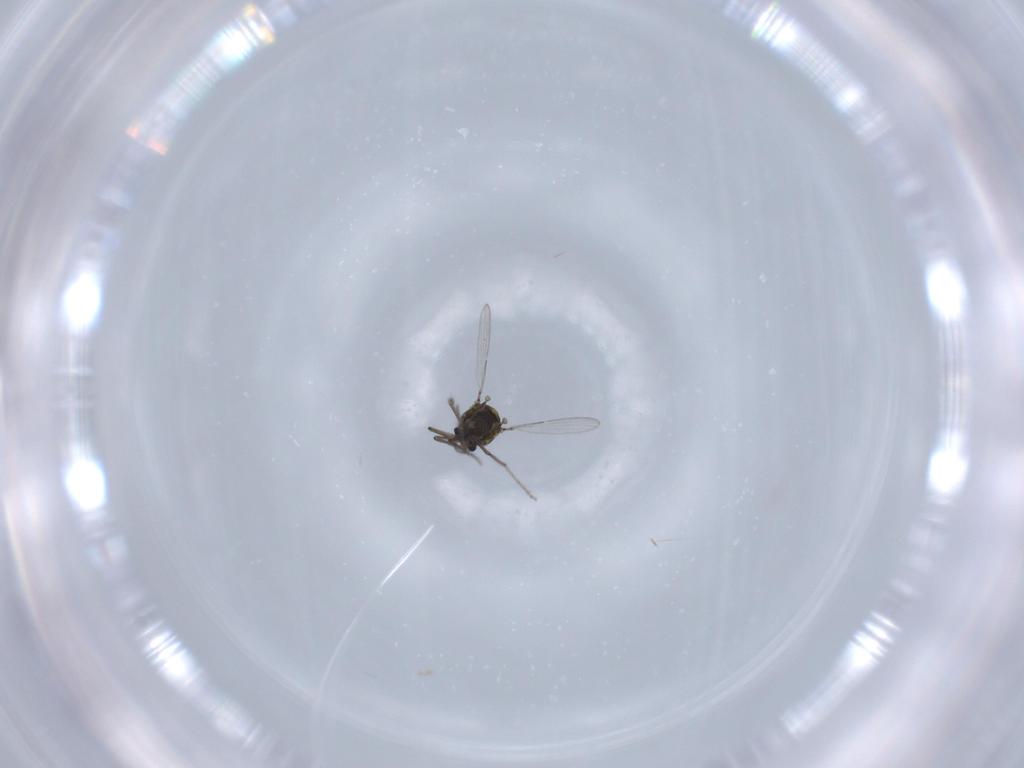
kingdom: Animalia
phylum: Arthropoda
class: Insecta
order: Diptera
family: Ceratopogonidae
